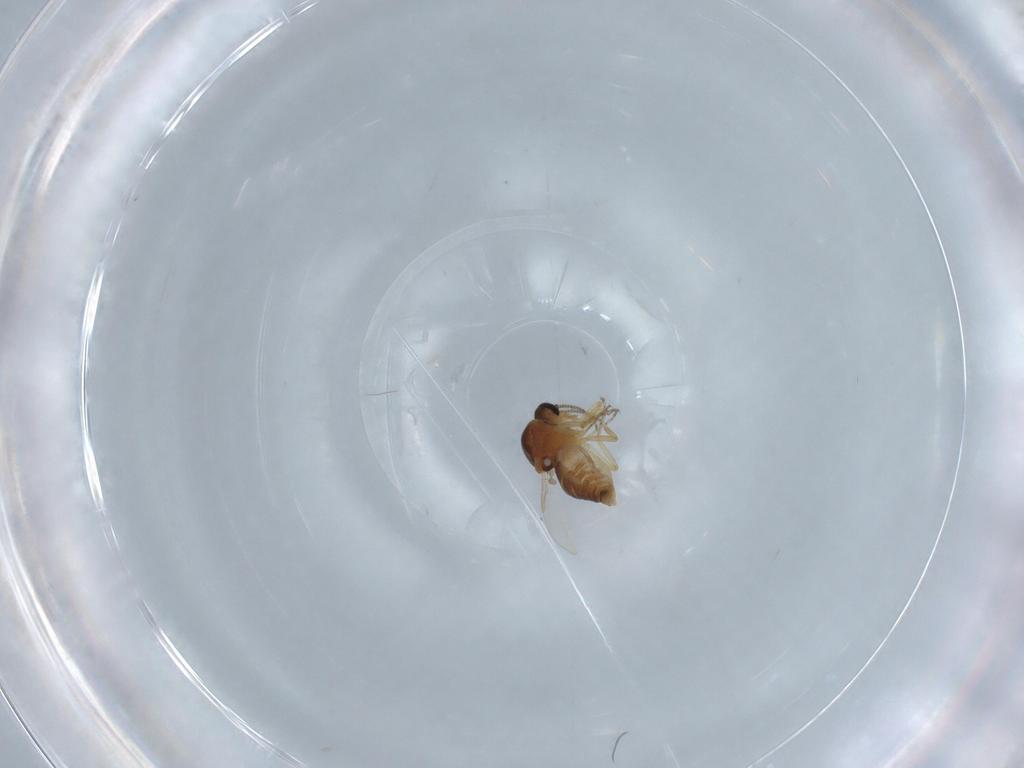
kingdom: Animalia
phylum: Arthropoda
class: Insecta
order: Diptera
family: Ceratopogonidae
